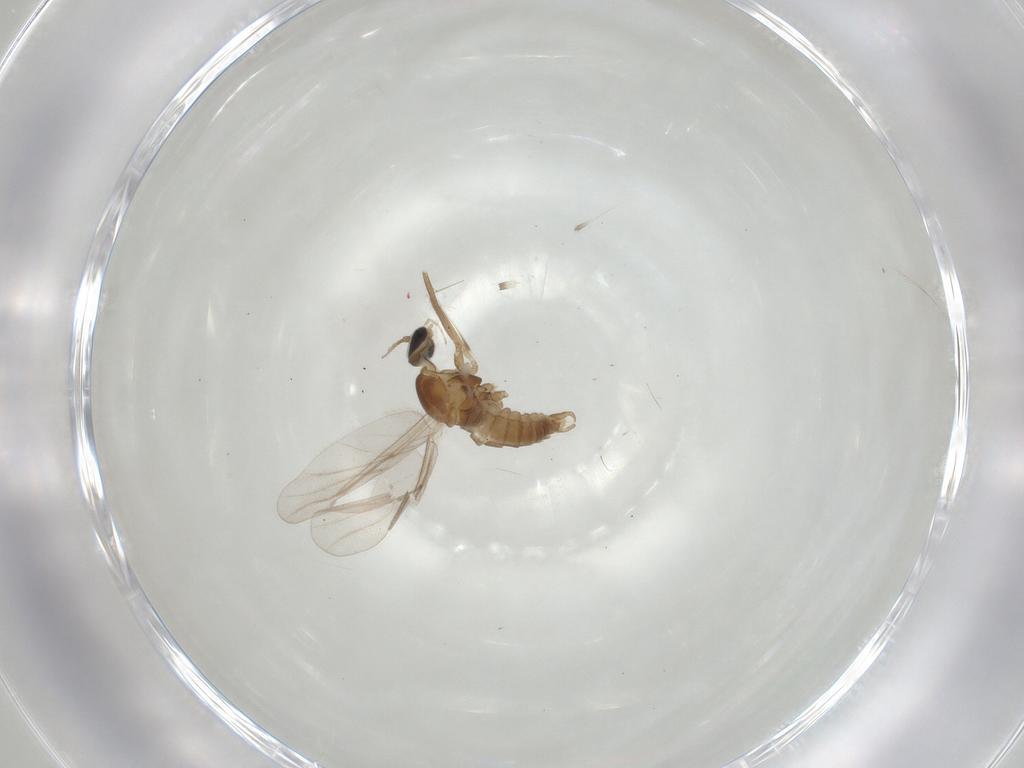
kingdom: Animalia
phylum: Arthropoda
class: Insecta
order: Diptera
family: Cecidomyiidae
